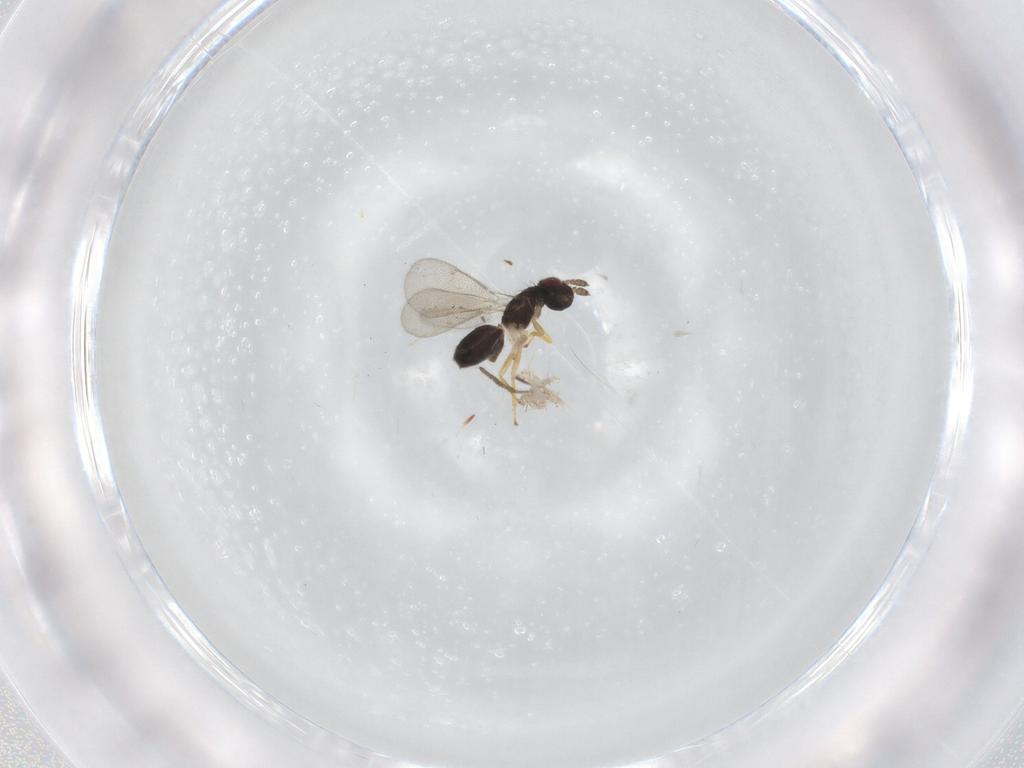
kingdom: Animalia
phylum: Arthropoda
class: Insecta
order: Hymenoptera
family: Eulophidae
